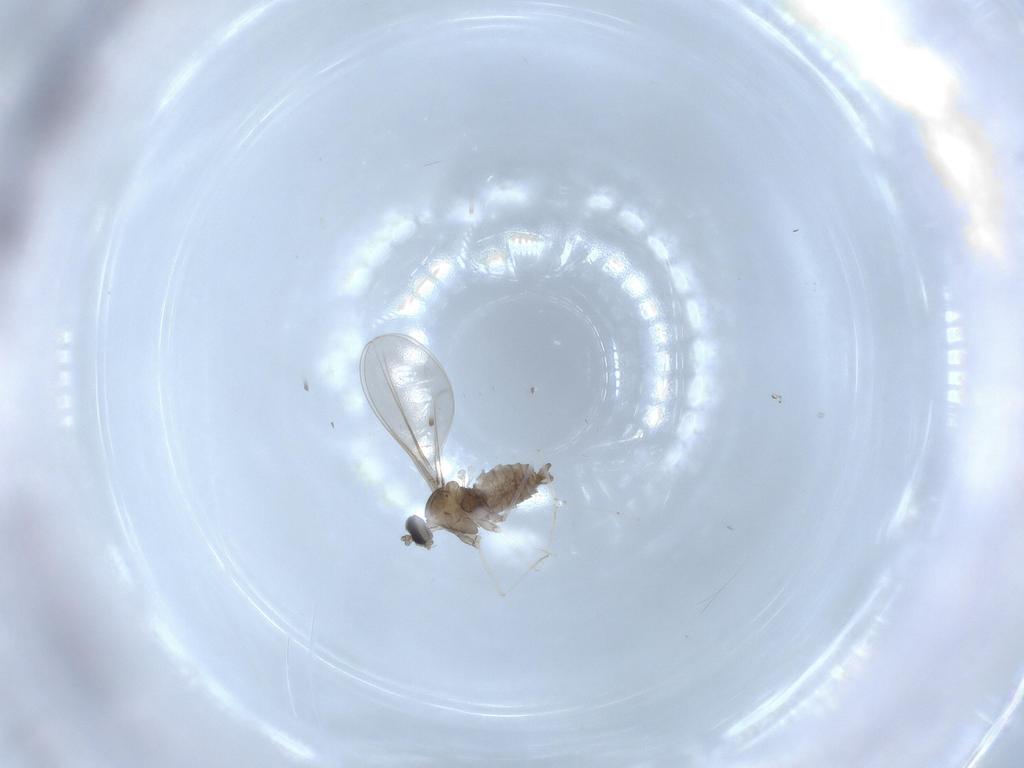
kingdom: Animalia
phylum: Arthropoda
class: Insecta
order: Diptera
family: Cecidomyiidae
